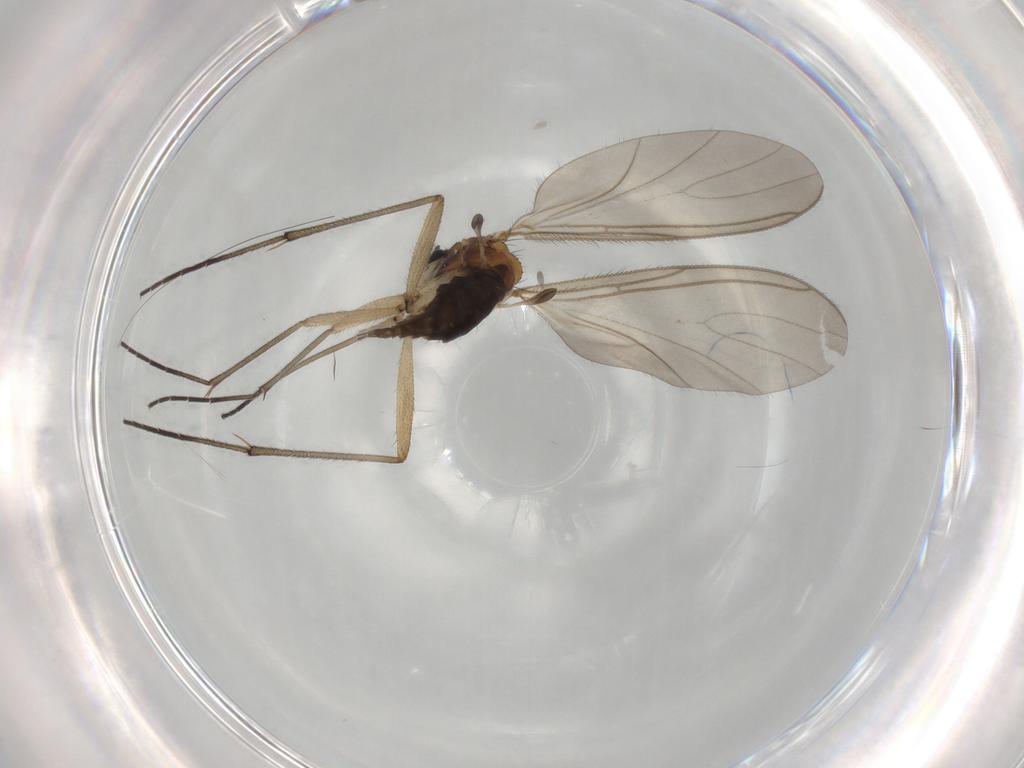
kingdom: Animalia
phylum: Arthropoda
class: Insecta
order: Diptera
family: Sciaridae
